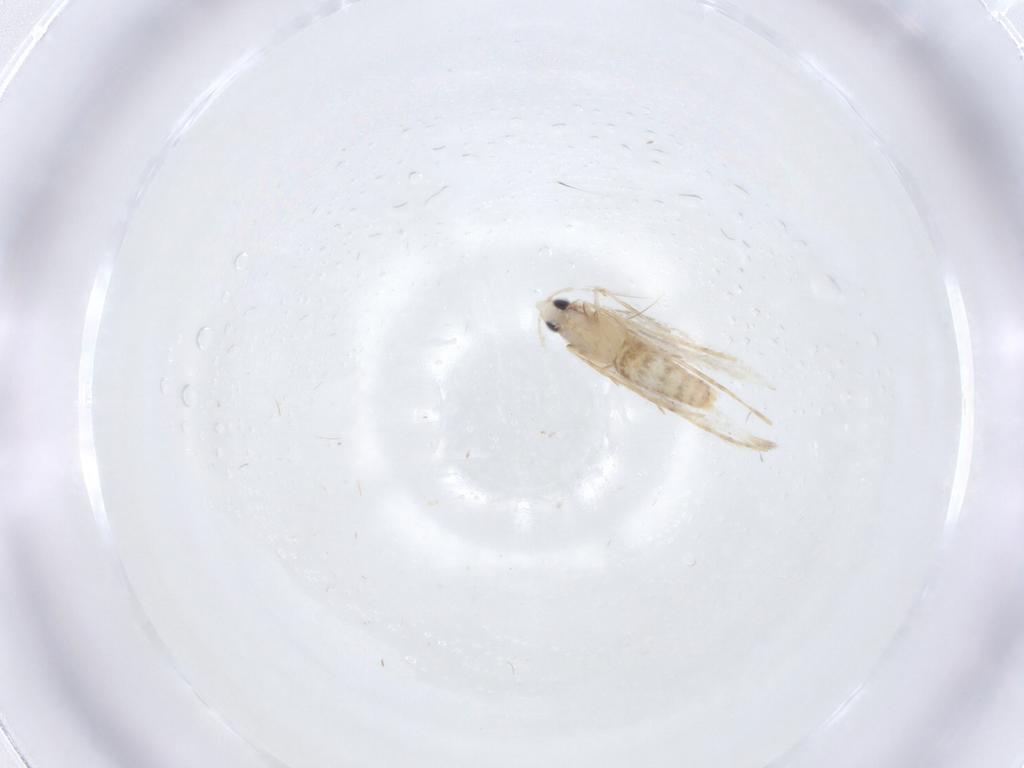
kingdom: Animalia
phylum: Arthropoda
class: Insecta
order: Lepidoptera
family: Tineidae
